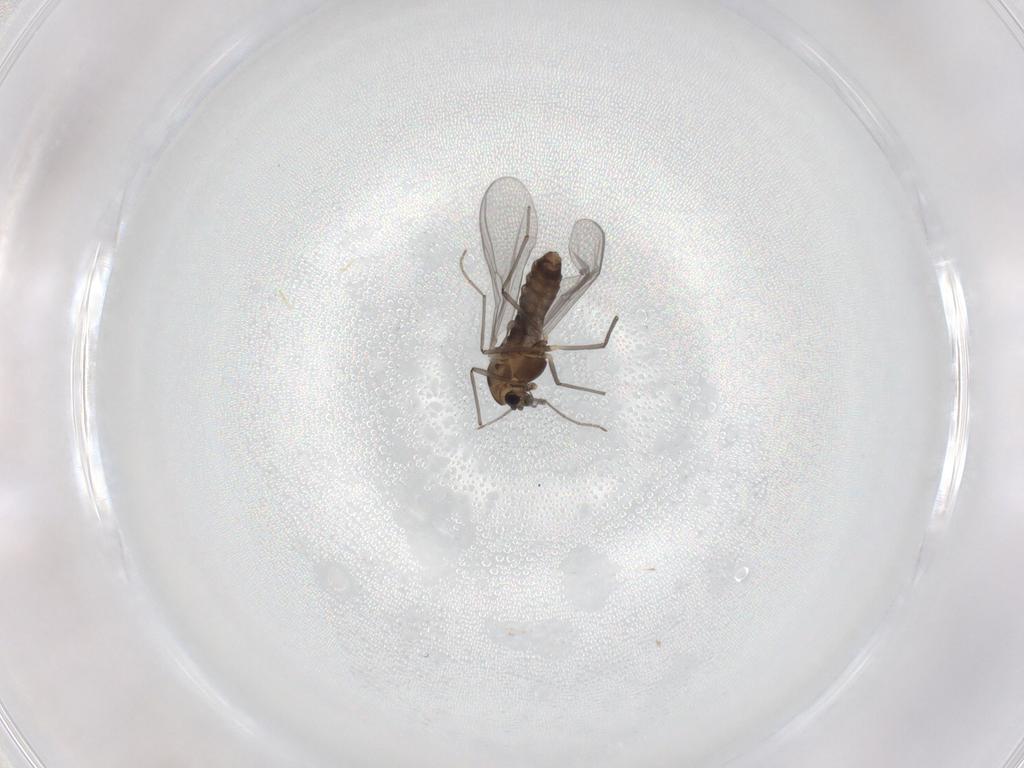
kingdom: Animalia
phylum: Arthropoda
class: Insecta
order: Diptera
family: Chironomidae
